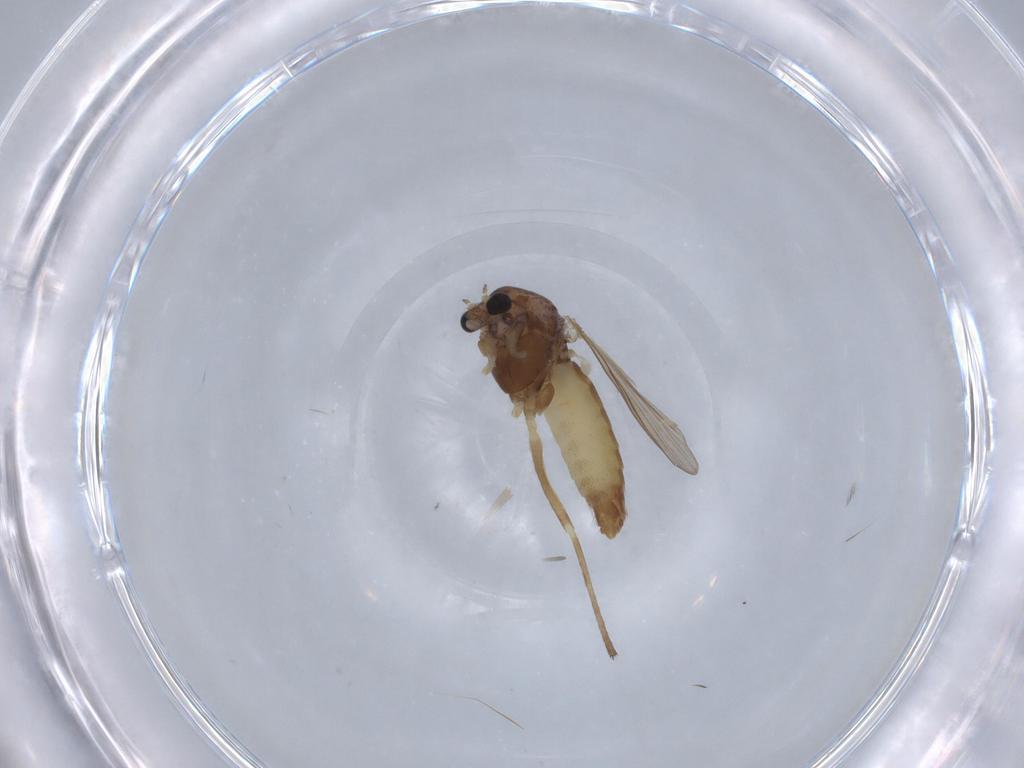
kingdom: Animalia
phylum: Arthropoda
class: Insecta
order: Diptera
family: Chironomidae
